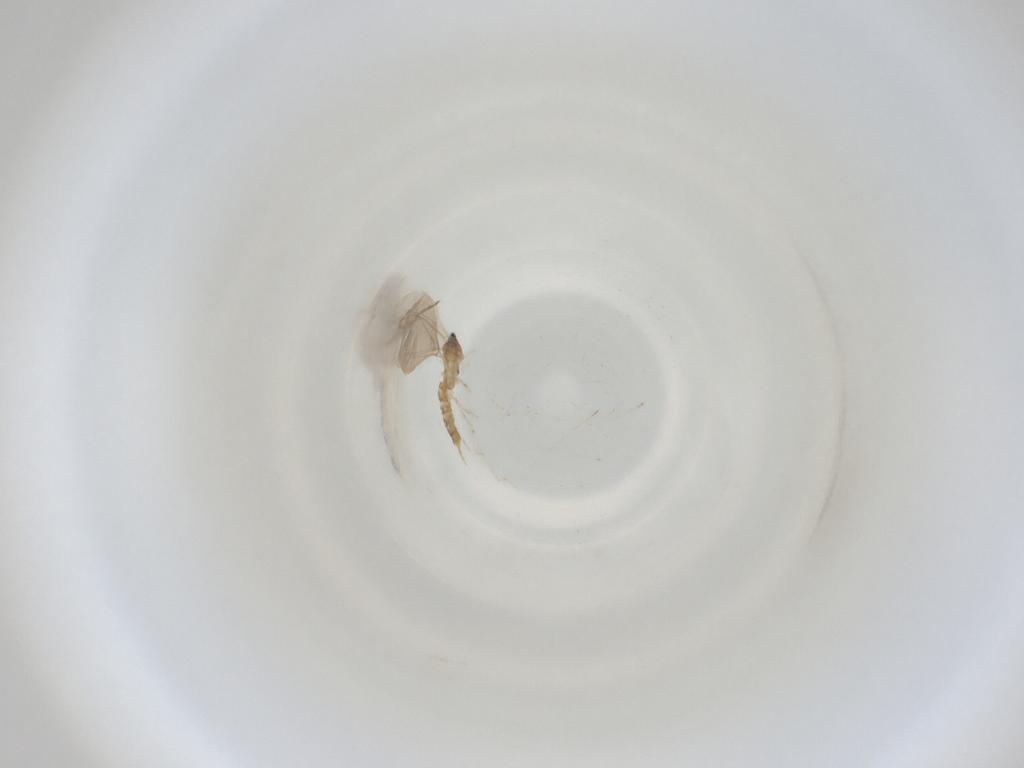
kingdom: Animalia
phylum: Arthropoda
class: Insecta
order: Diptera
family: Cecidomyiidae
